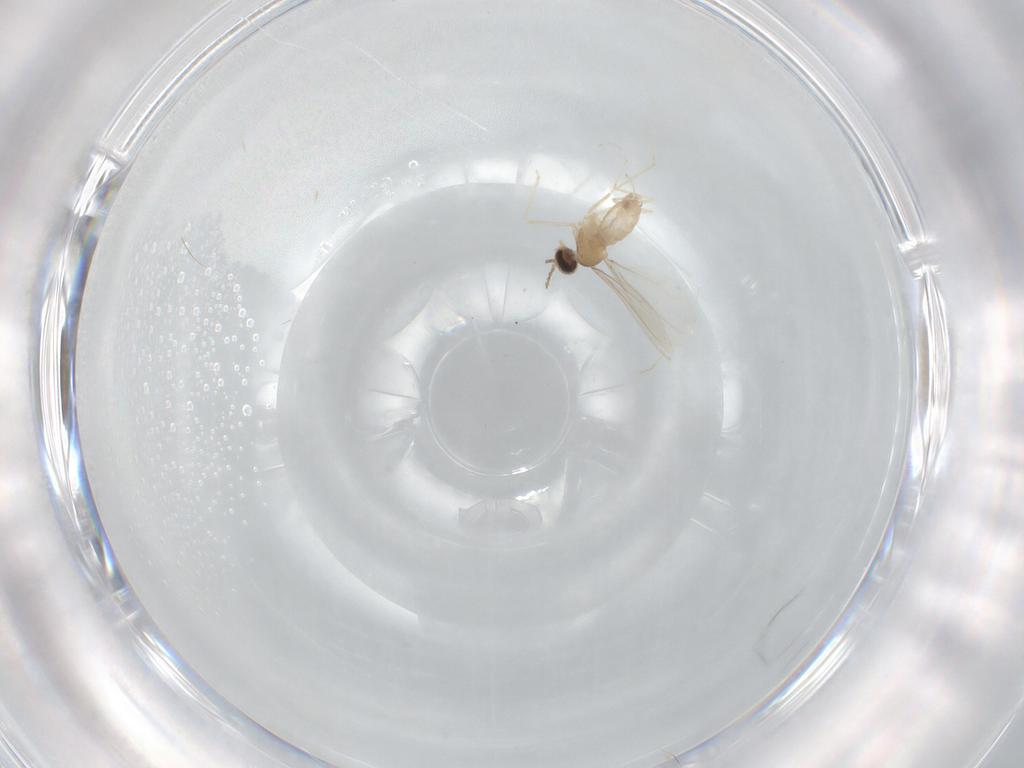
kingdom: Animalia
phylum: Arthropoda
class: Insecta
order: Diptera
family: Cecidomyiidae
